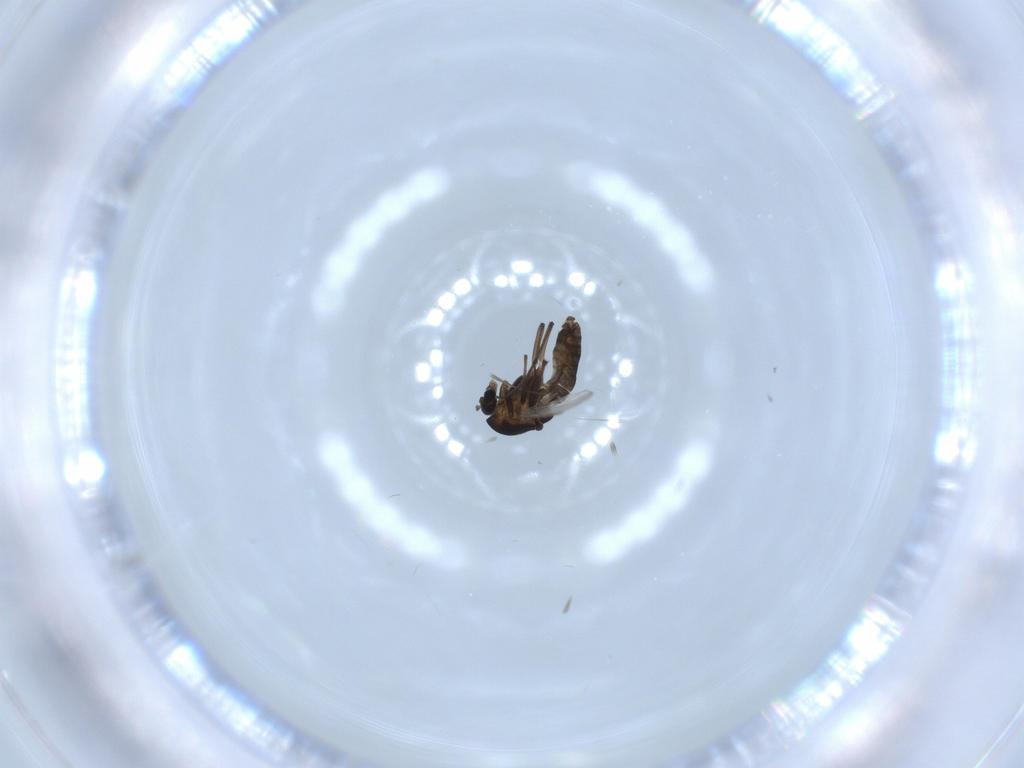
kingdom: Animalia
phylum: Arthropoda
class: Insecta
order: Diptera
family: Chironomidae
